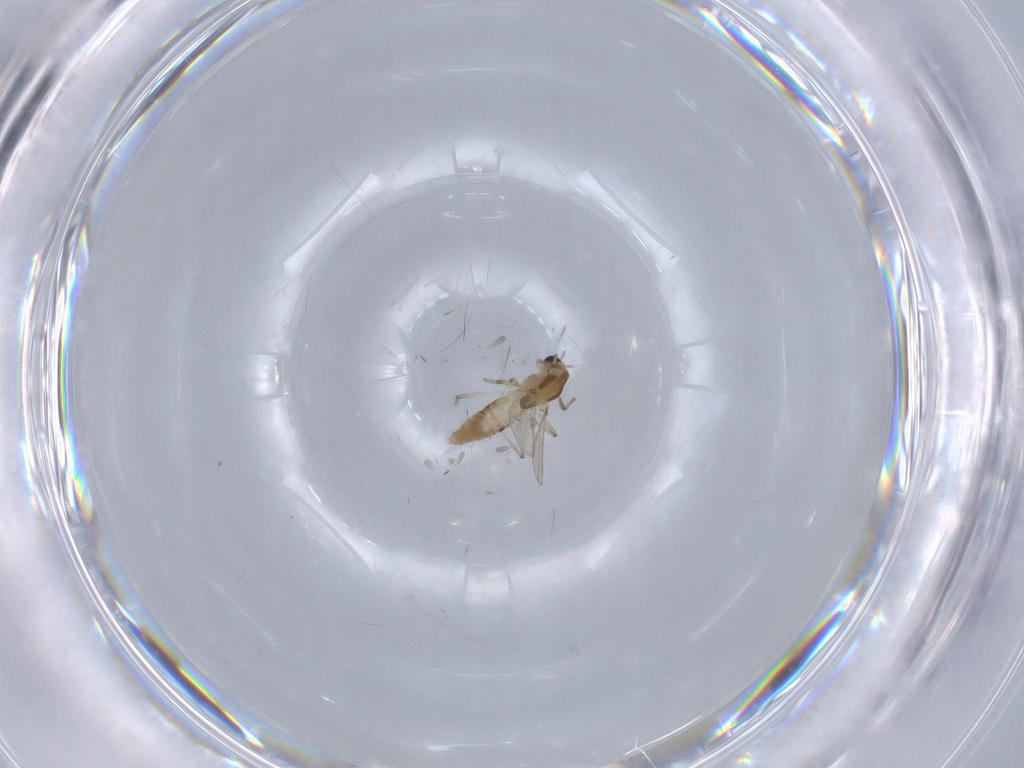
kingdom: Animalia
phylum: Arthropoda
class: Insecta
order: Diptera
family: Chironomidae
